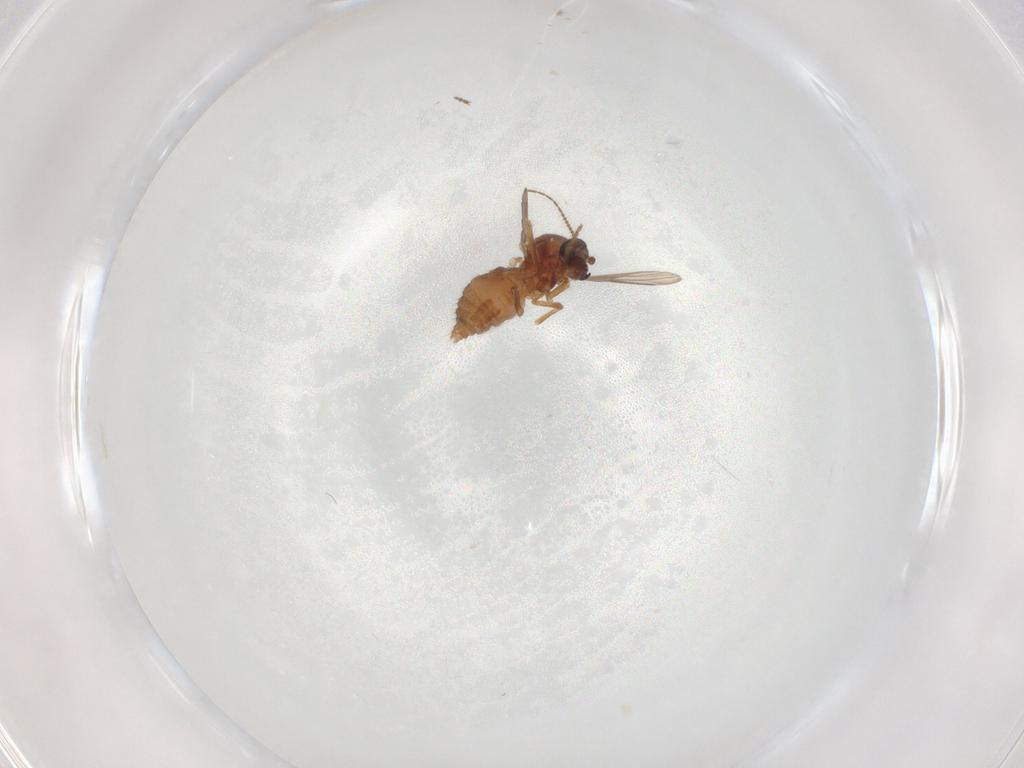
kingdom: Animalia
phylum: Arthropoda
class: Insecta
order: Diptera
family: Ceratopogonidae
